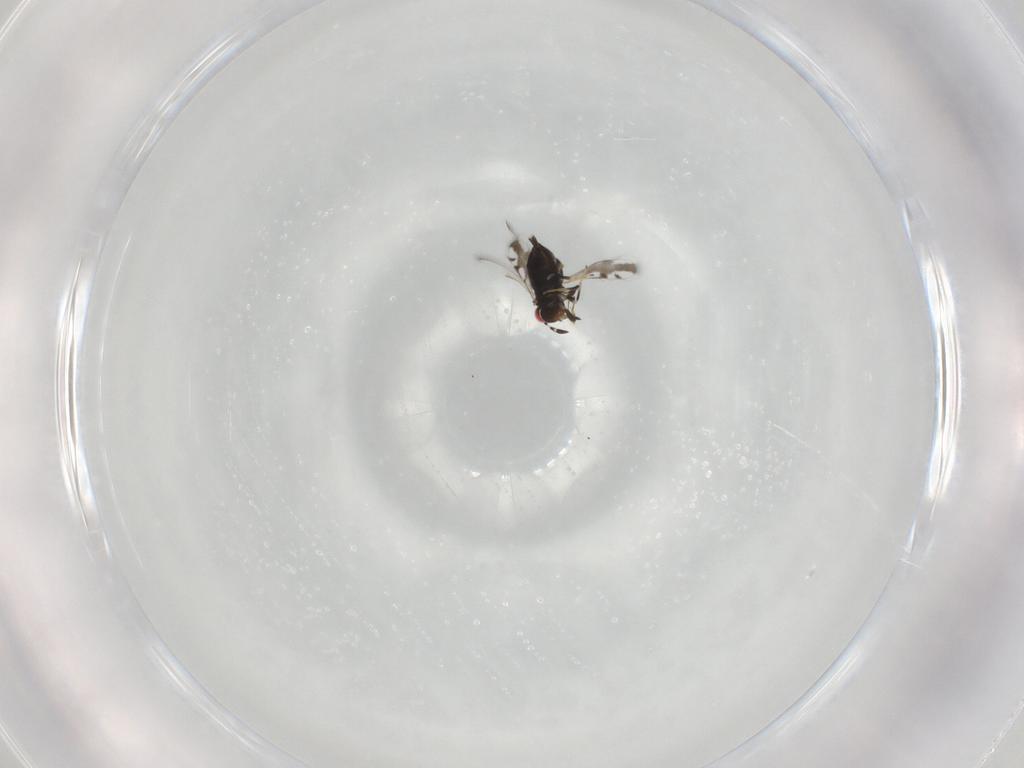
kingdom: Animalia
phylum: Arthropoda
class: Insecta
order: Hymenoptera
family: Azotidae
